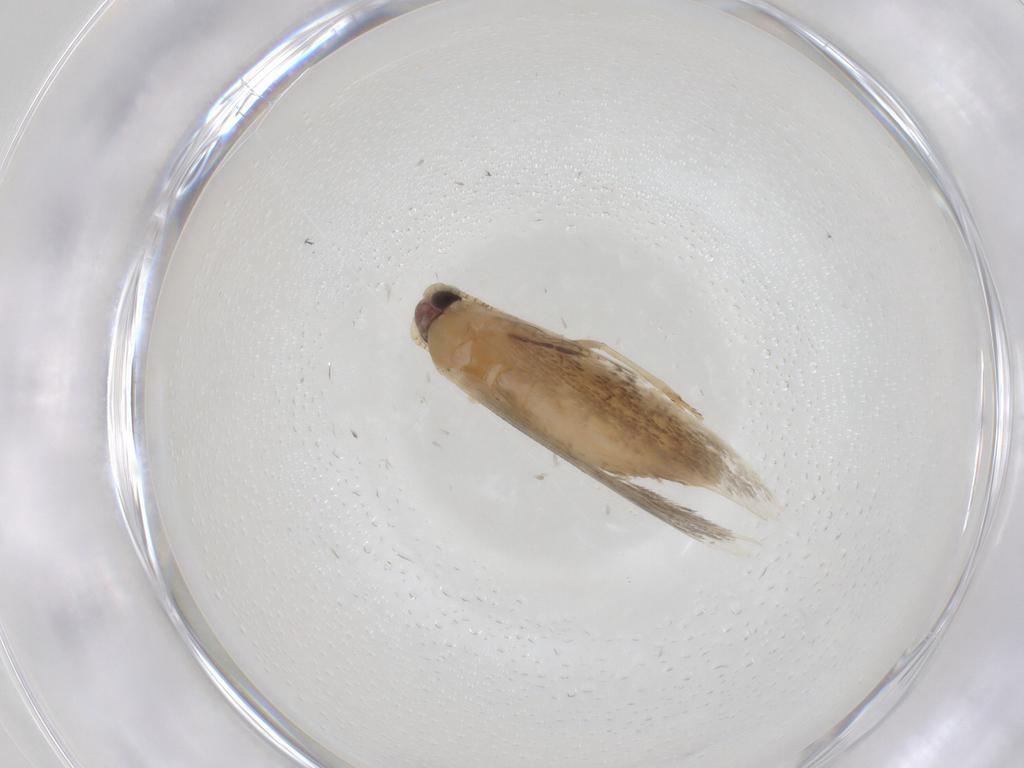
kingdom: Animalia
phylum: Arthropoda
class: Insecta
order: Lepidoptera
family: Tineidae
